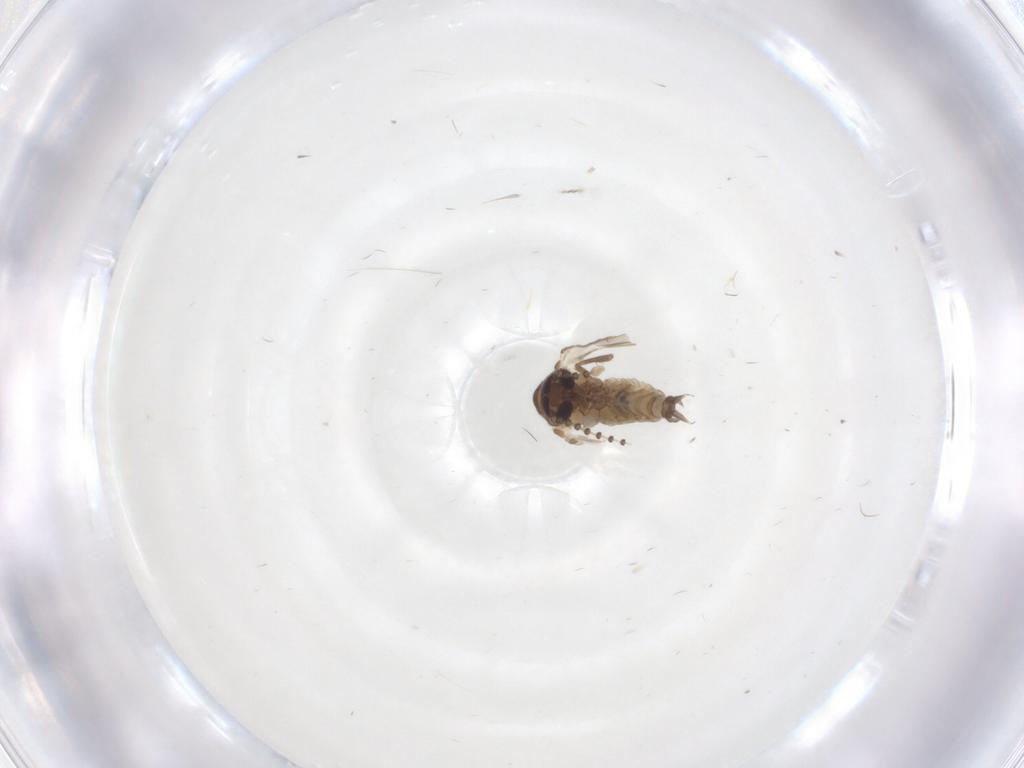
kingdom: Animalia
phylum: Arthropoda
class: Insecta
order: Diptera
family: Psychodidae
